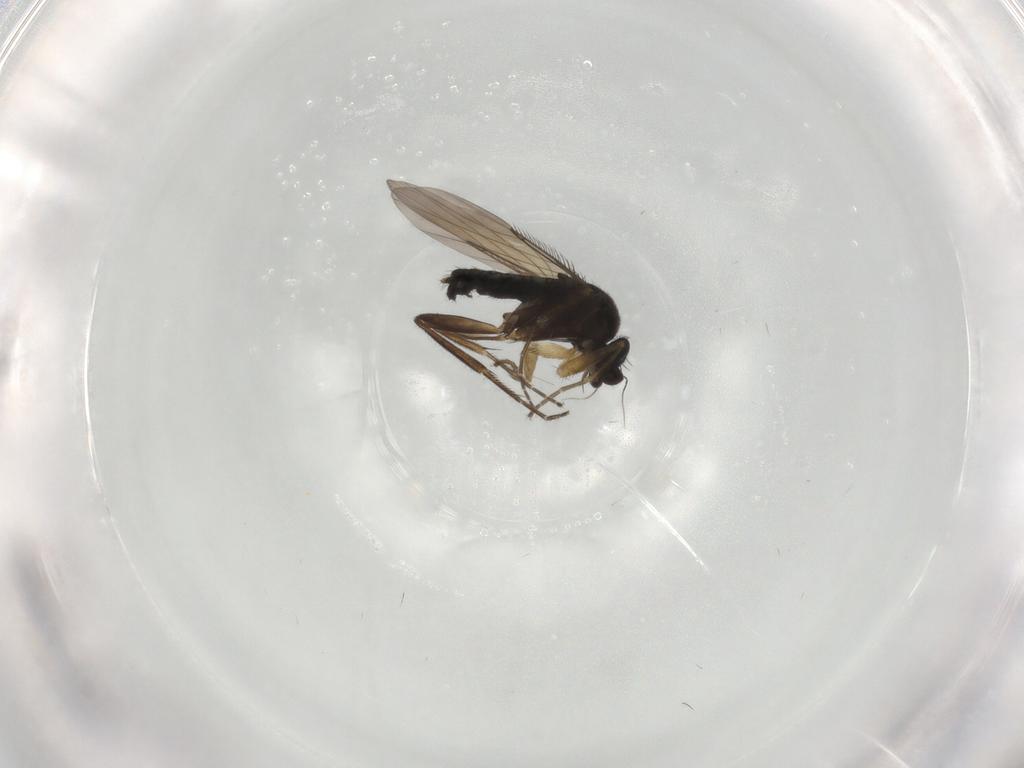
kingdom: Animalia
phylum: Arthropoda
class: Insecta
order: Diptera
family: Phoridae
